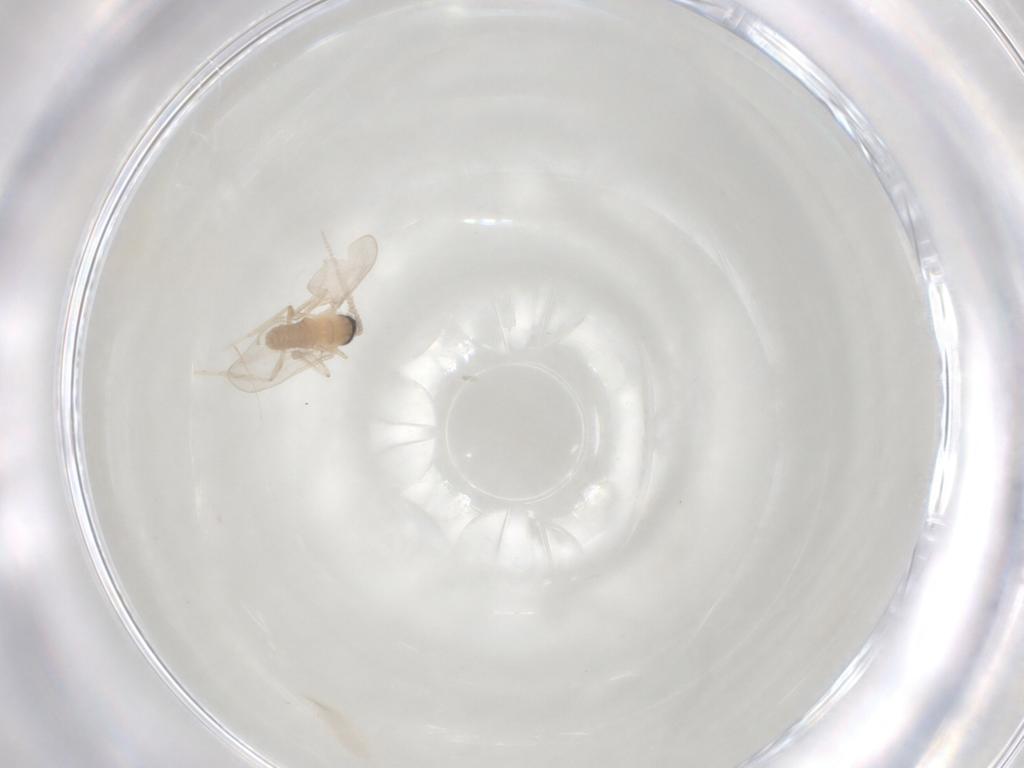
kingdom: Animalia
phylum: Arthropoda
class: Insecta
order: Diptera
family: Cecidomyiidae
